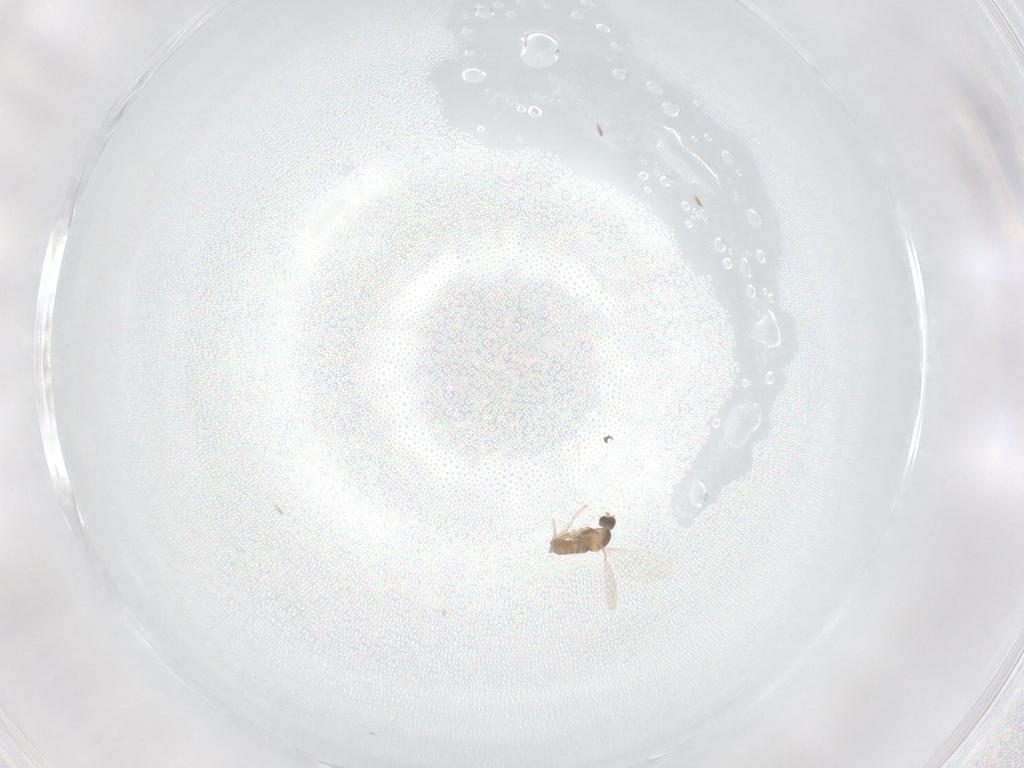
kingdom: Animalia
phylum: Arthropoda
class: Insecta
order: Diptera
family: Cecidomyiidae
